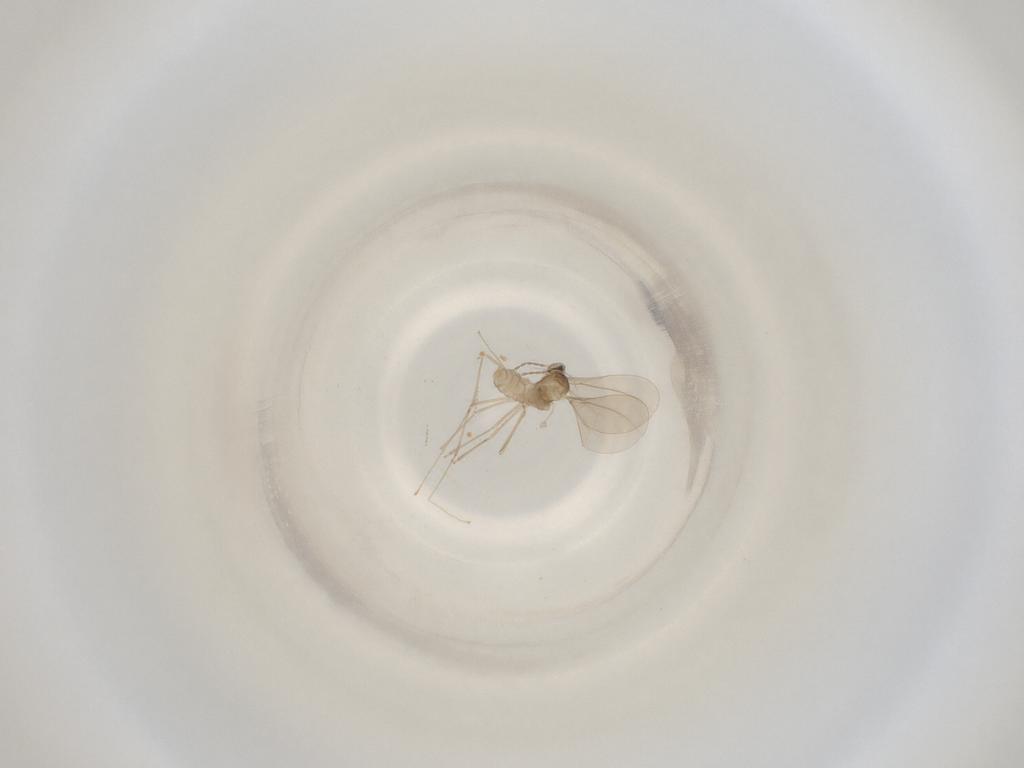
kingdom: Animalia
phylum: Arthropoda
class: Insecta
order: Diptera
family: Cecidomyiidae
